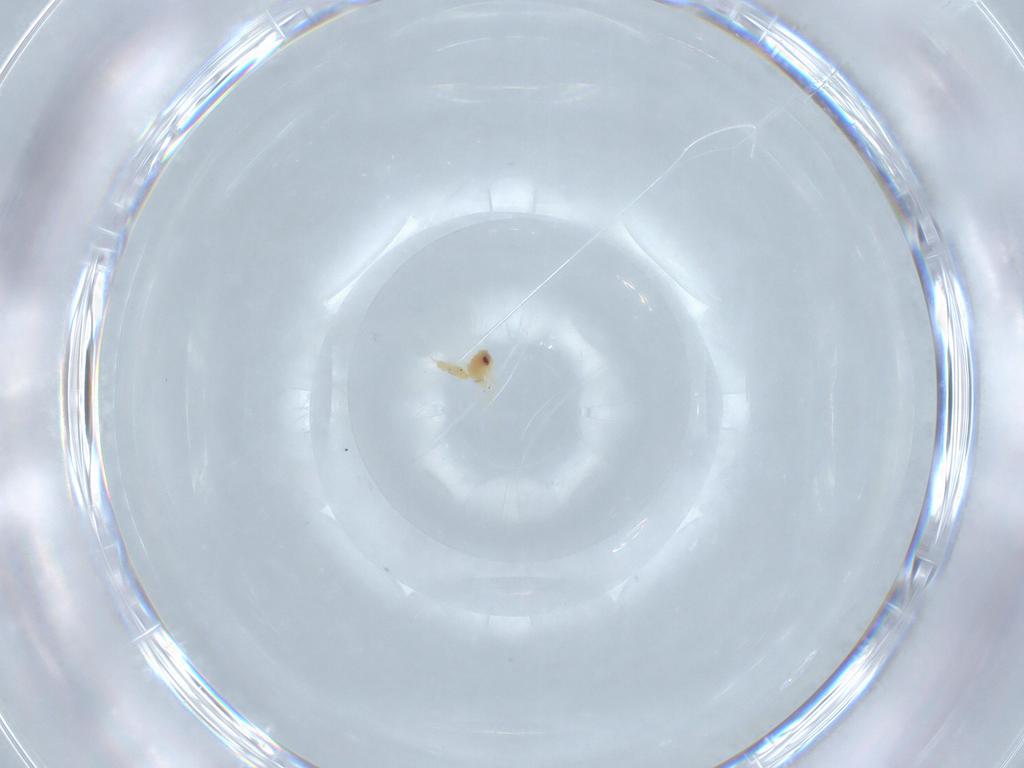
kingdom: Animalia
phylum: Arthropoda
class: Insecta
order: Hemiptera
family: Aleyrodidae
